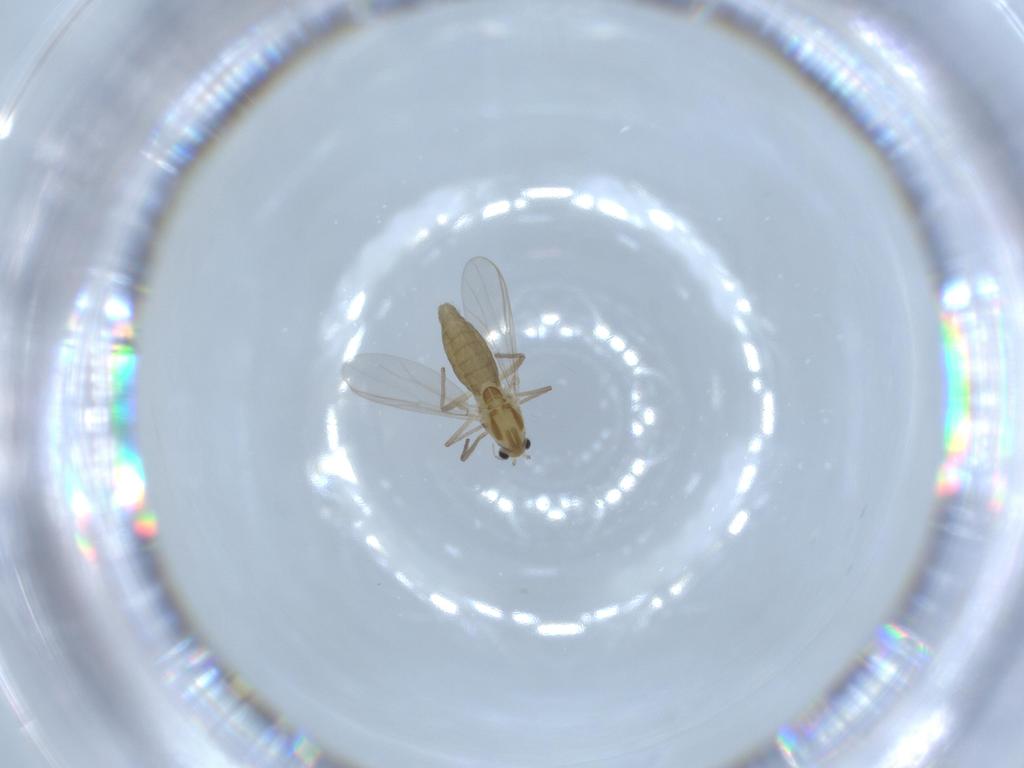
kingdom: Animalia
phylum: Arthropoda
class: Insecta
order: Diptera
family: Chironomidae
